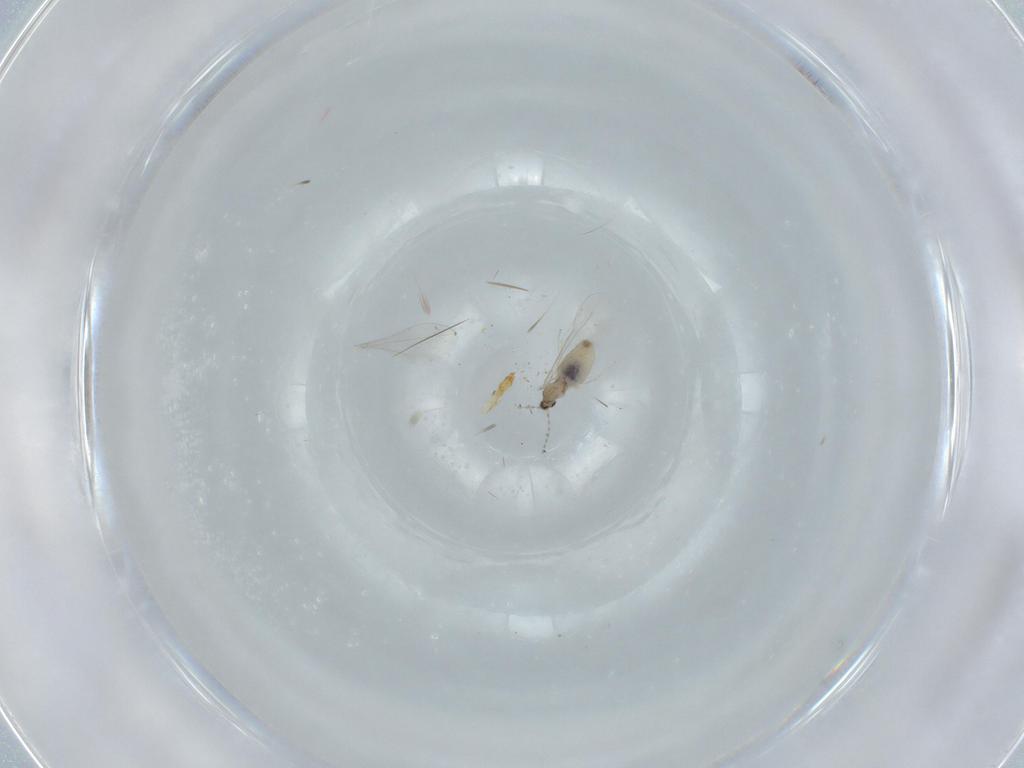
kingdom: Animalia
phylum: Arthropoda
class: Insecta
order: Diptera
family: Cecidomyiidae
